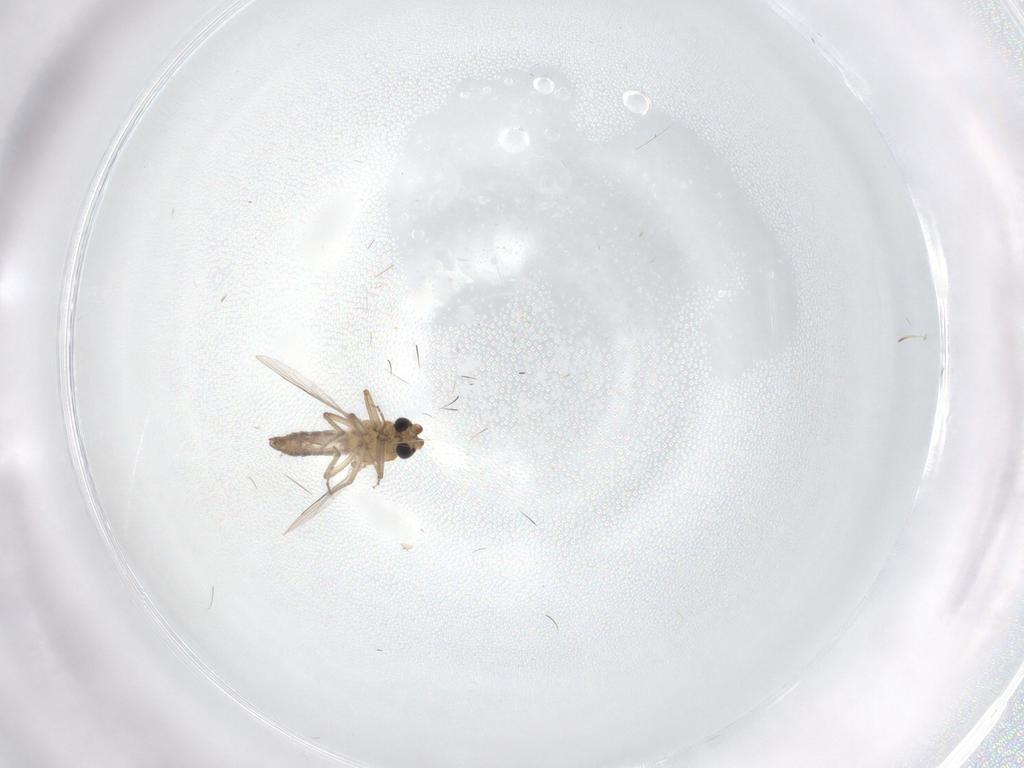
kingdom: Animalia
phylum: Arthropoda
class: Insecta
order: Diptera
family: Phoridae
